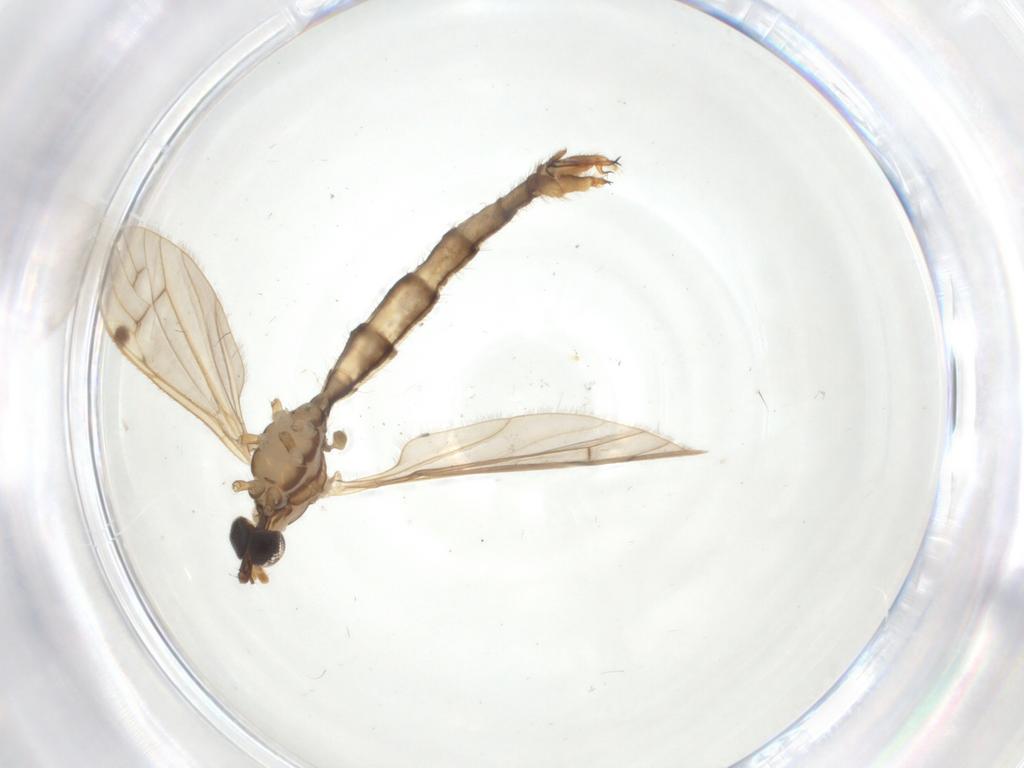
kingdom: Animalia
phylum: Arthropoda
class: Insecta
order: Diptera
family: Limoniidae
